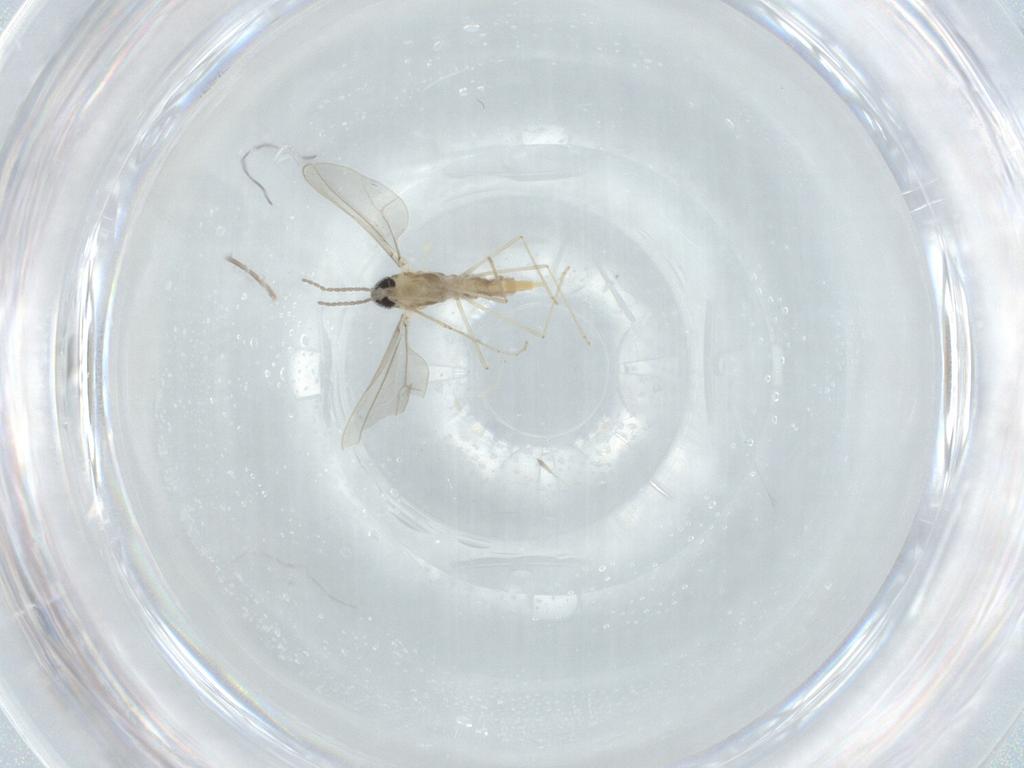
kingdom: Animalia
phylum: Arthropoda
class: Insecta
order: Diptera
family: Cecidomyiidae
